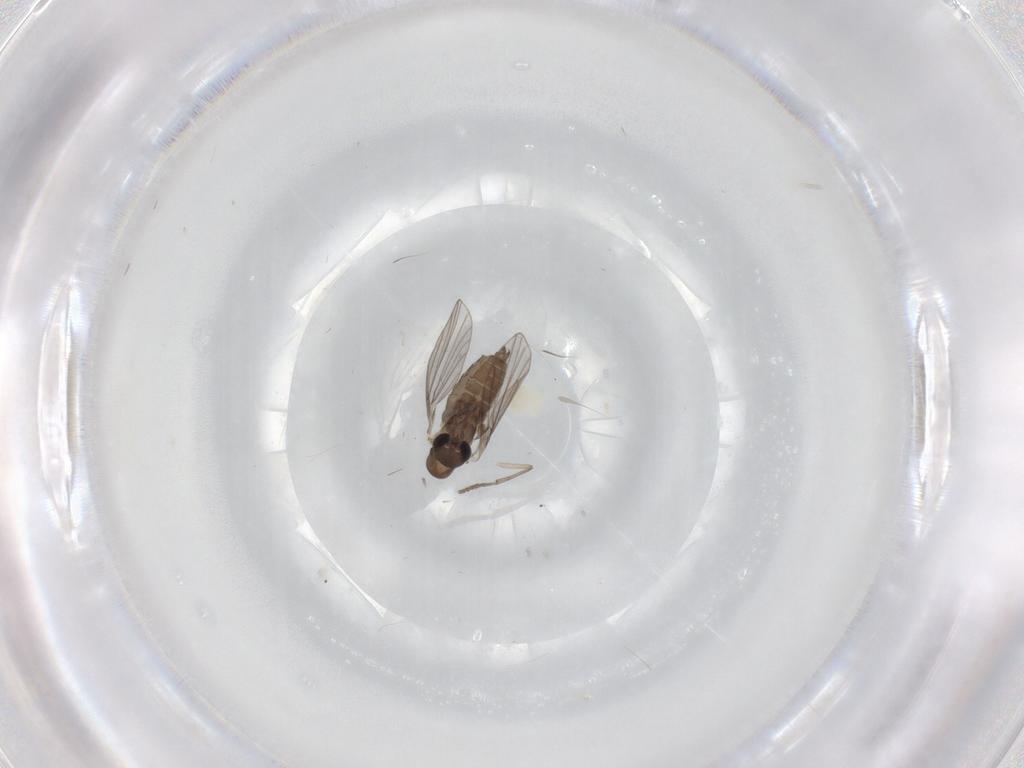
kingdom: Animalia
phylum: Arthropoda
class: Insecta
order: Diptera
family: Psychodidae
